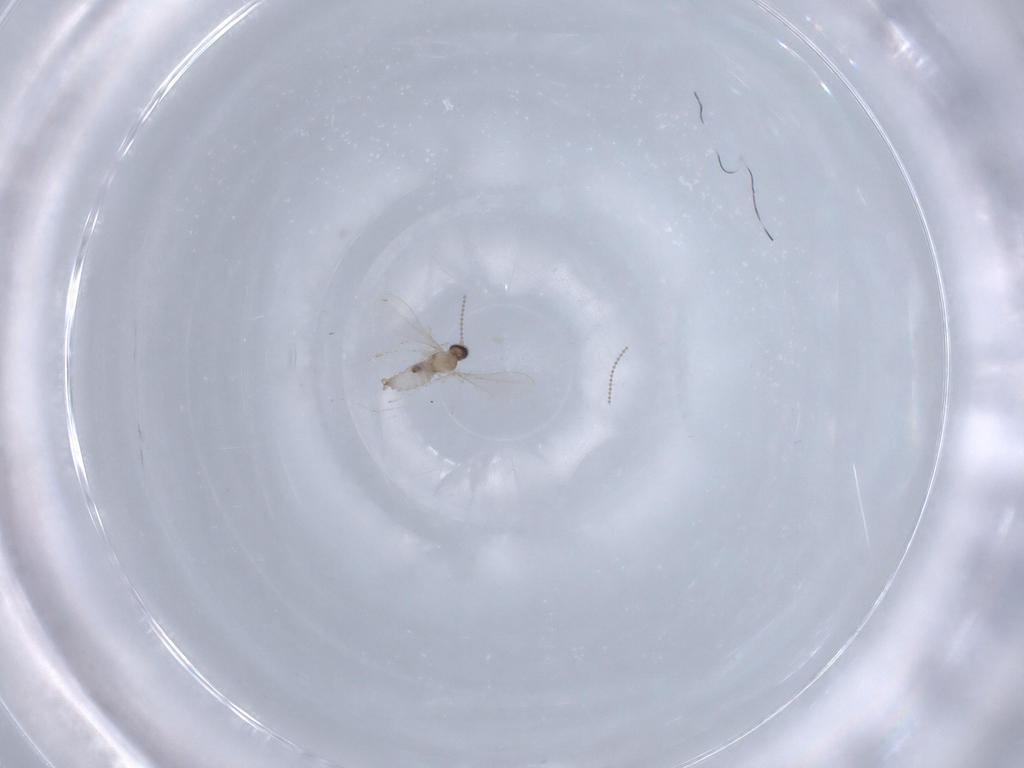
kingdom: Animalia
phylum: Arthropoda
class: Insecta
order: Diptera
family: Cecidomyiidae
